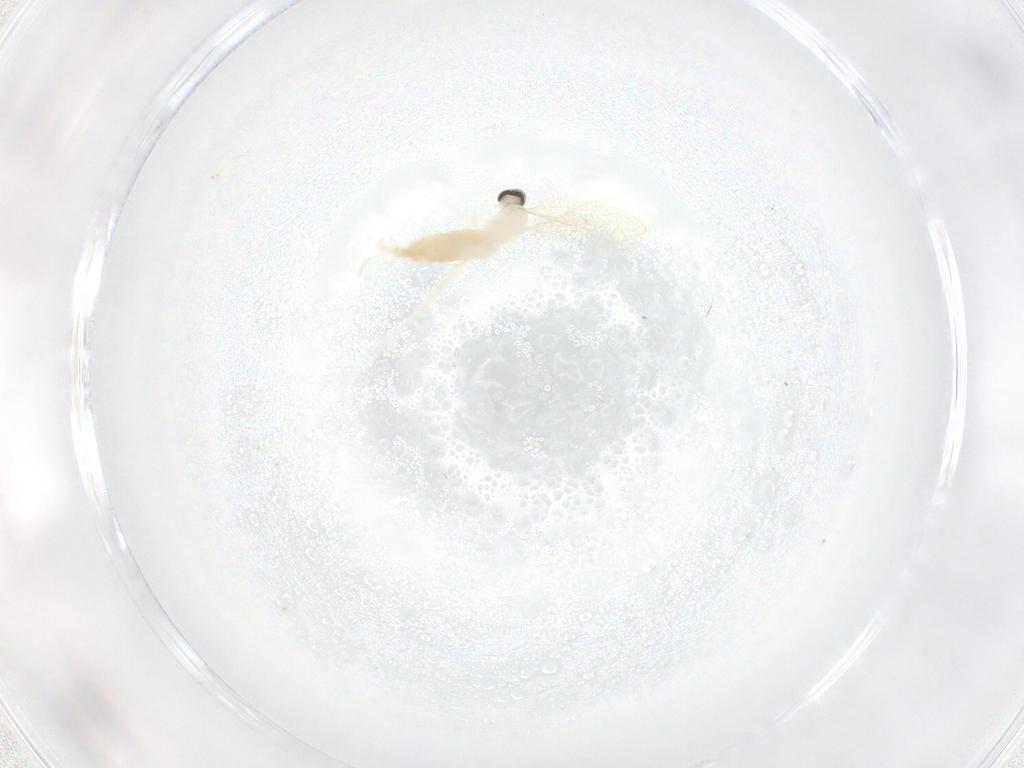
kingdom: Animalia
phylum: Arthropoda
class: Insecta
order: Diptera
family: Cecidomyiidae
